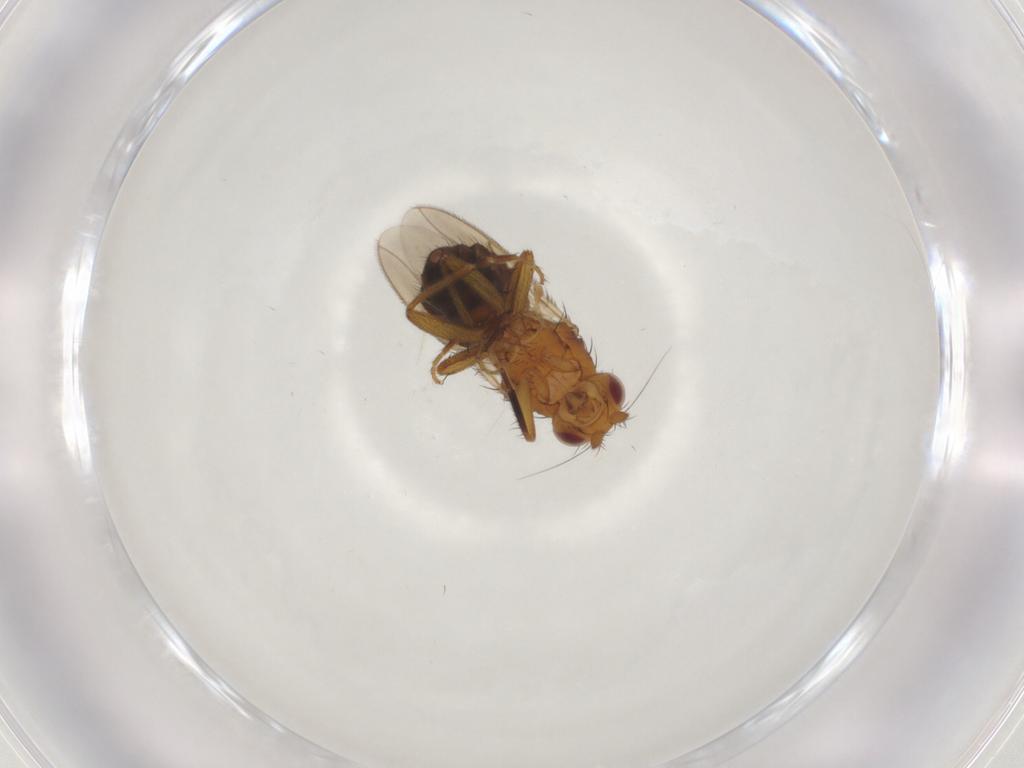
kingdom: Animalia
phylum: Arthropoda
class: Insecta
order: Diptera
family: Sphaeroceridae
